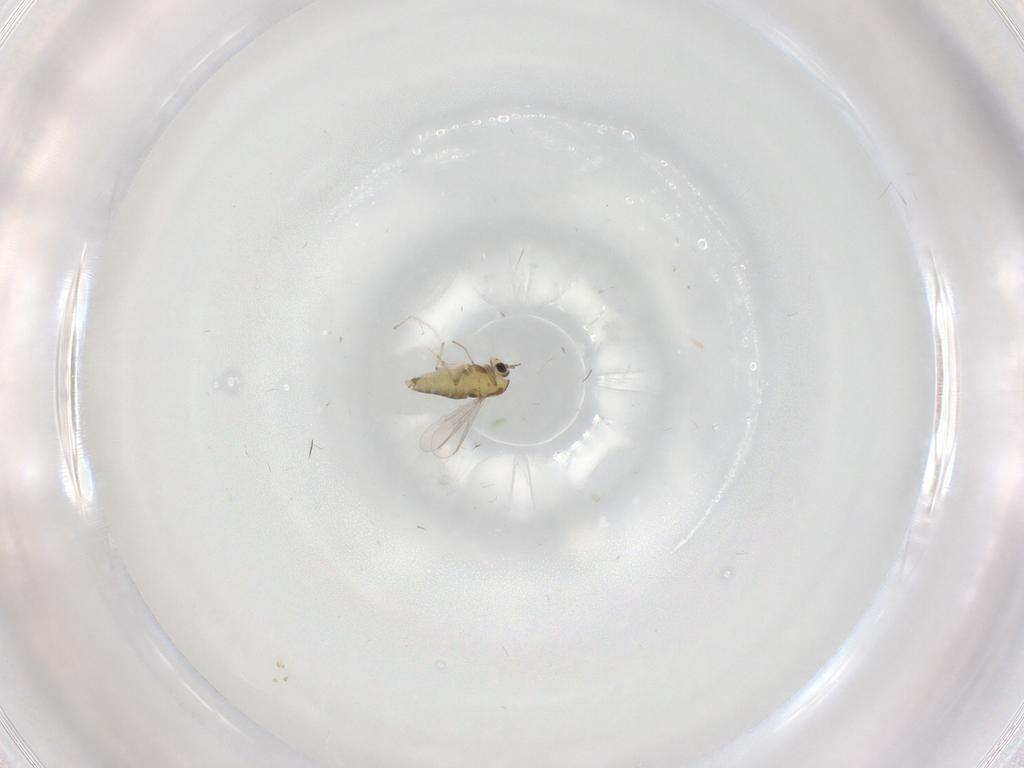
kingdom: Animalia
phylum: Arthropoda
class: Insecta
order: Diptera
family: Chironomidae
